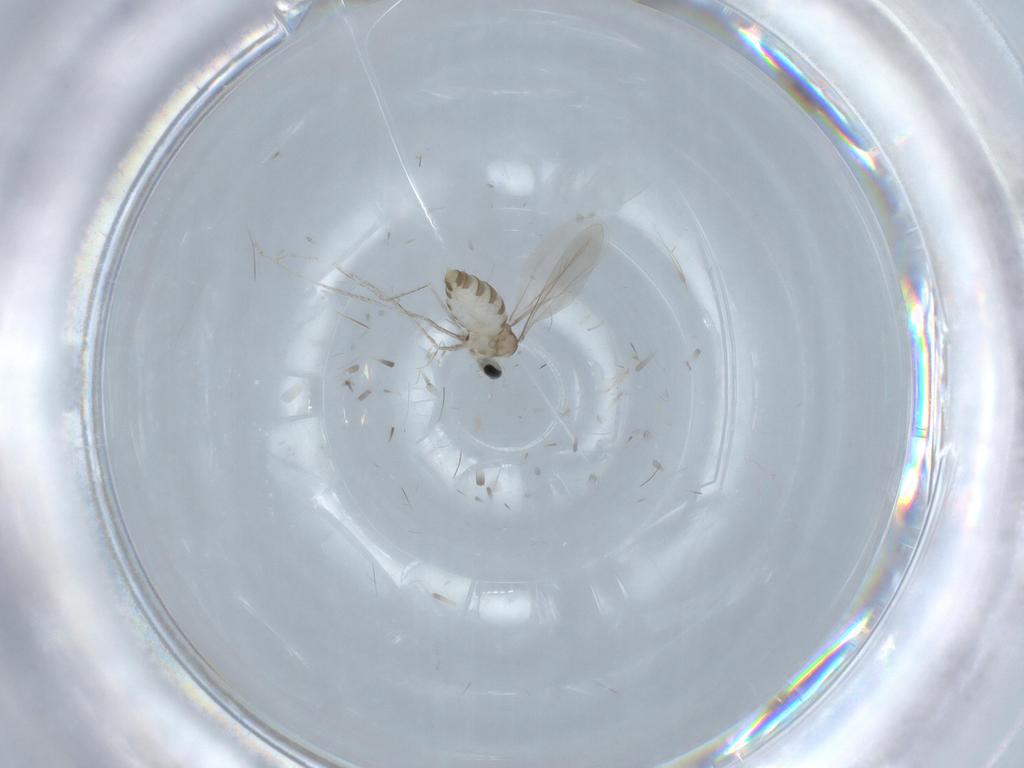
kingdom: Animalia
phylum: Arthropoda
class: Insecta
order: Diptera
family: Cecidomyiidae
